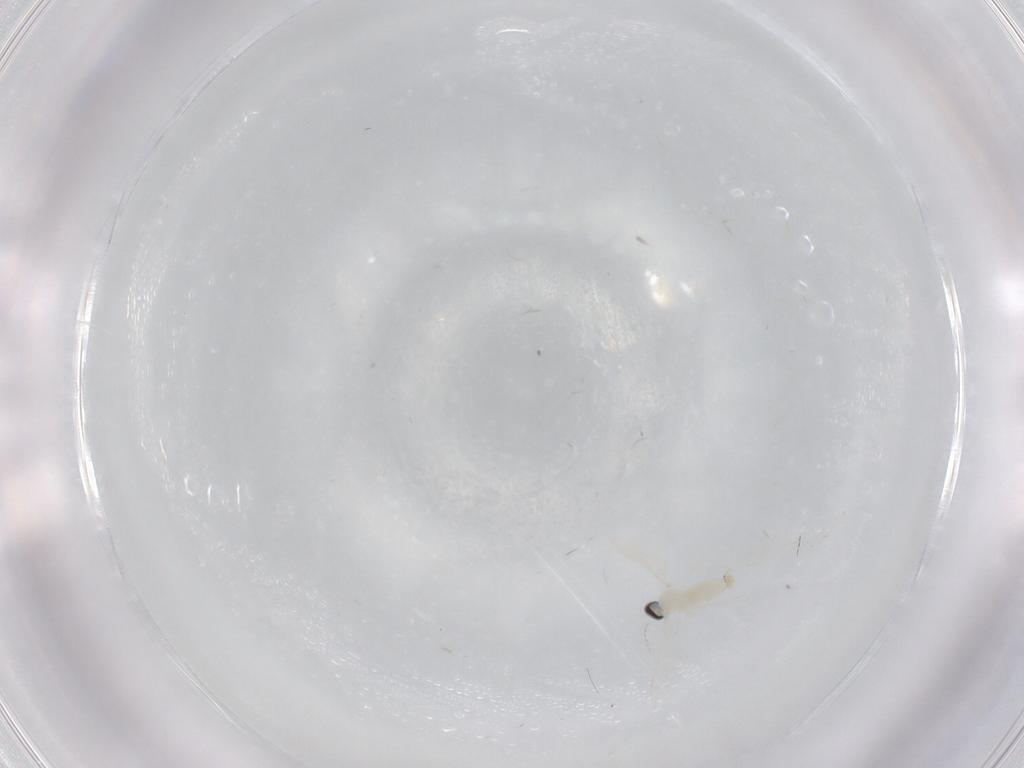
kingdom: Animalia
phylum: Arthropoda
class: Insecta
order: Diptera
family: Cecidomyiidae
